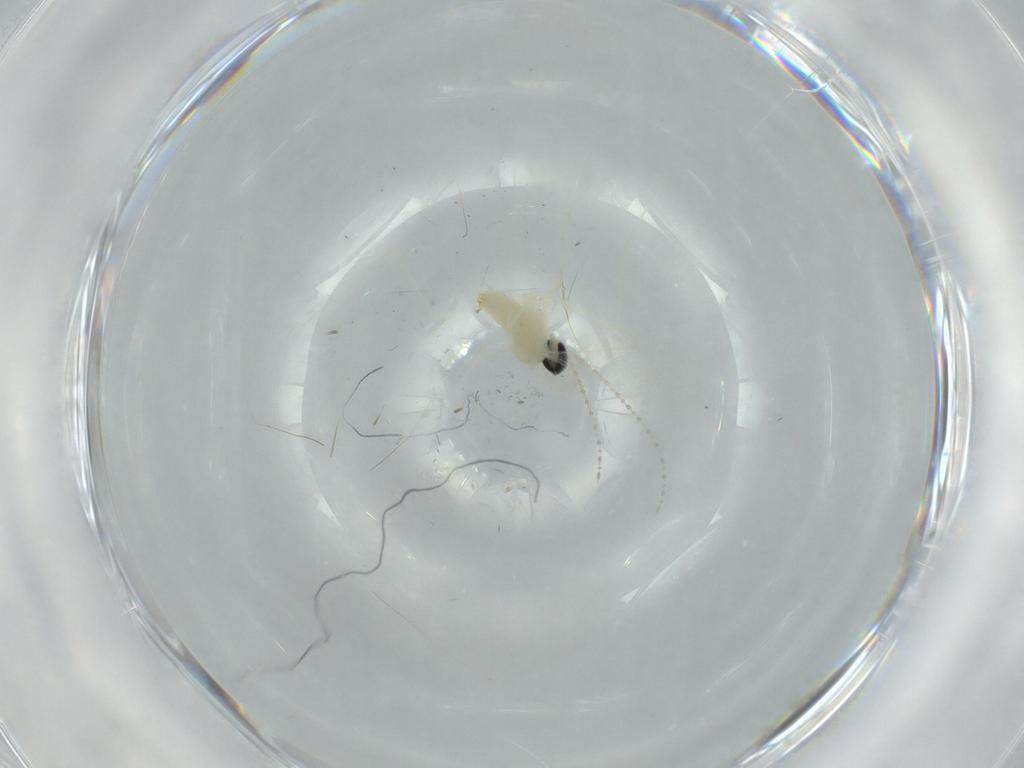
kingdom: Animalia
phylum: Arthropoda
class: Insecta
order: Diptera
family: Cecidomyiidae
